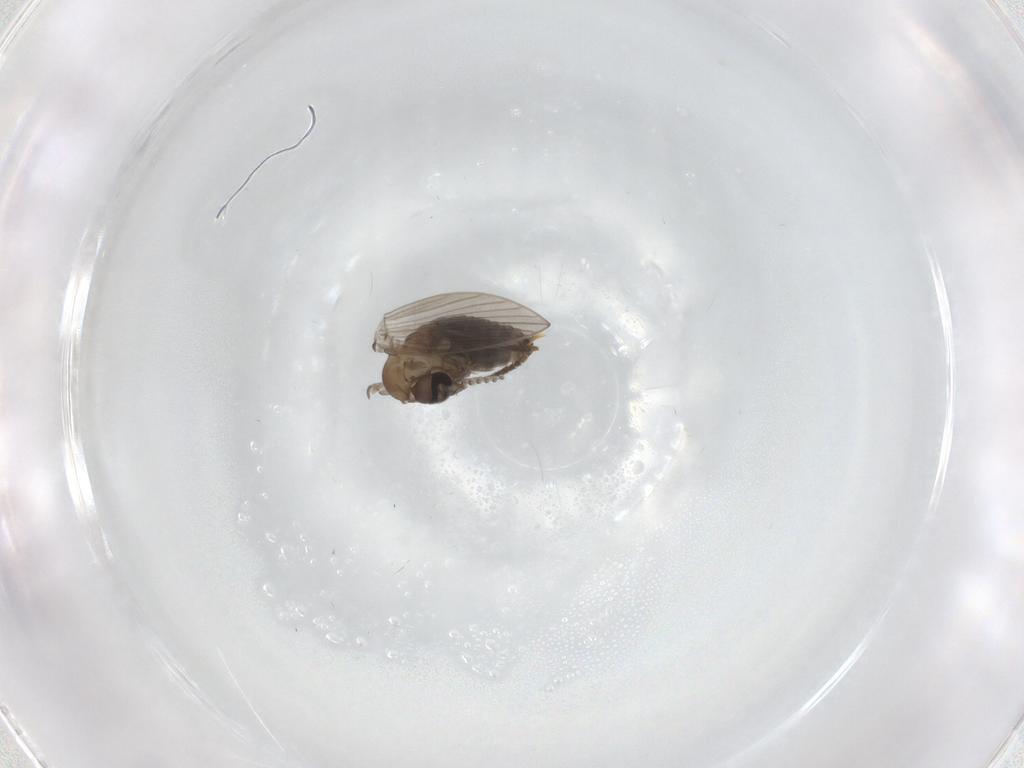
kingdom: Animalia
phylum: Arthropoda
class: Insecta
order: Diptera
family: Psychodidae
